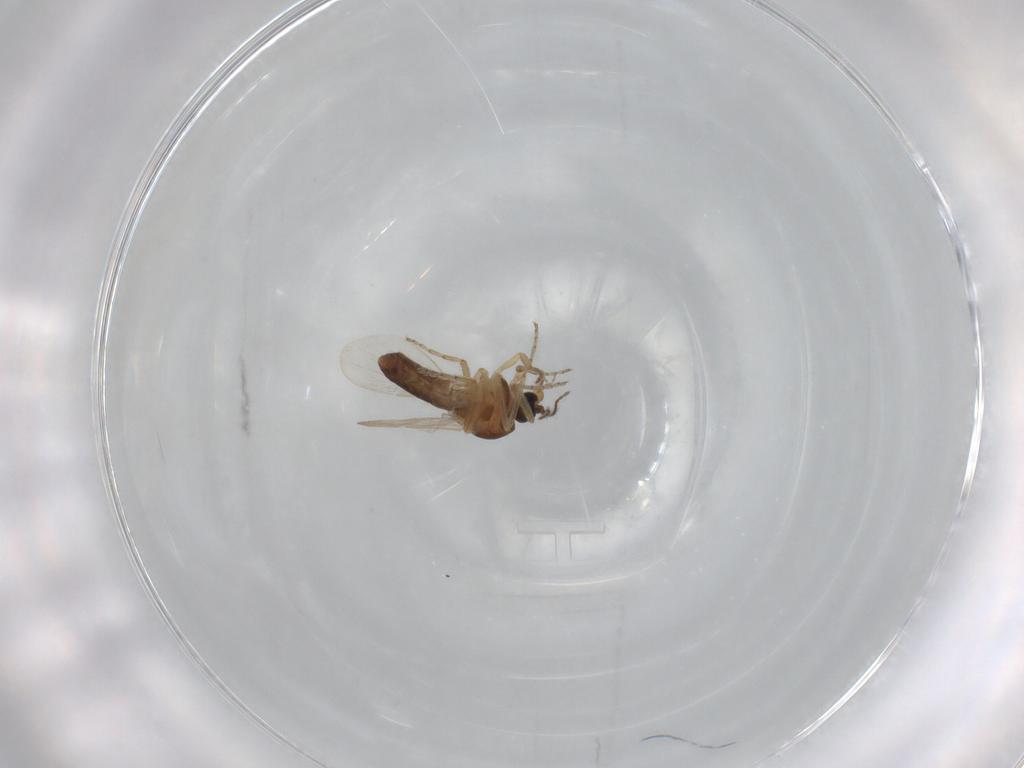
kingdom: Animalia
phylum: Arthropoda
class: Insecta
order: Diptera
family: Ceratopogonidae
